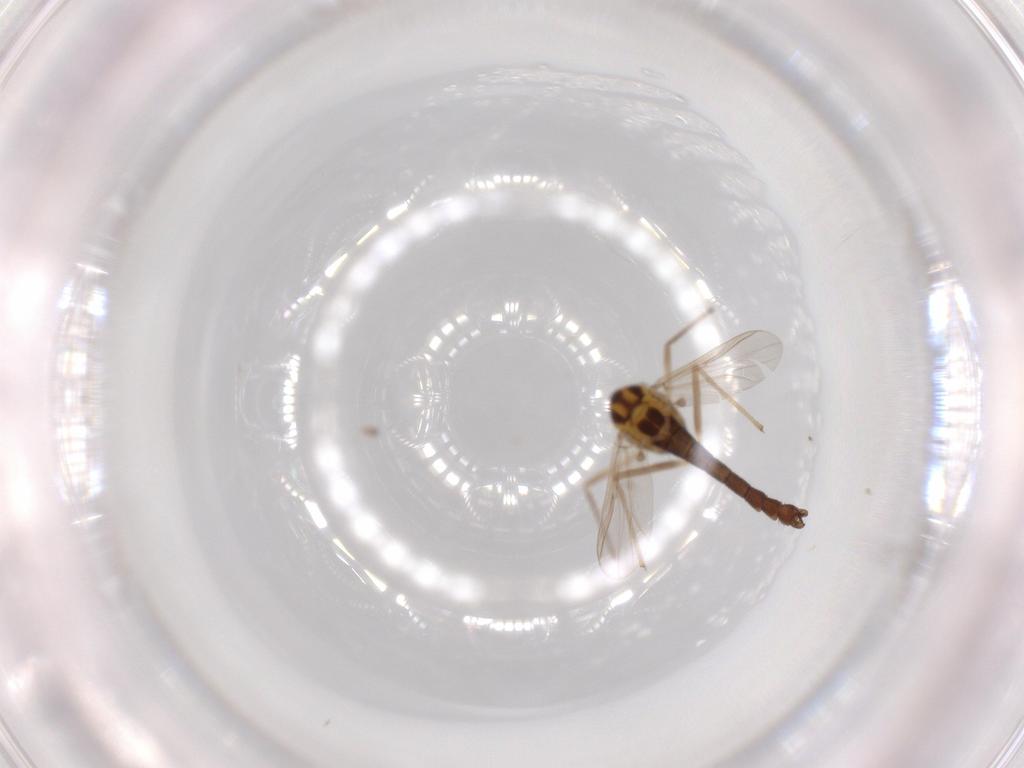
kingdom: Animalia
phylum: Arthropoda
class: Insecta
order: Diptera
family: Chironomidae
